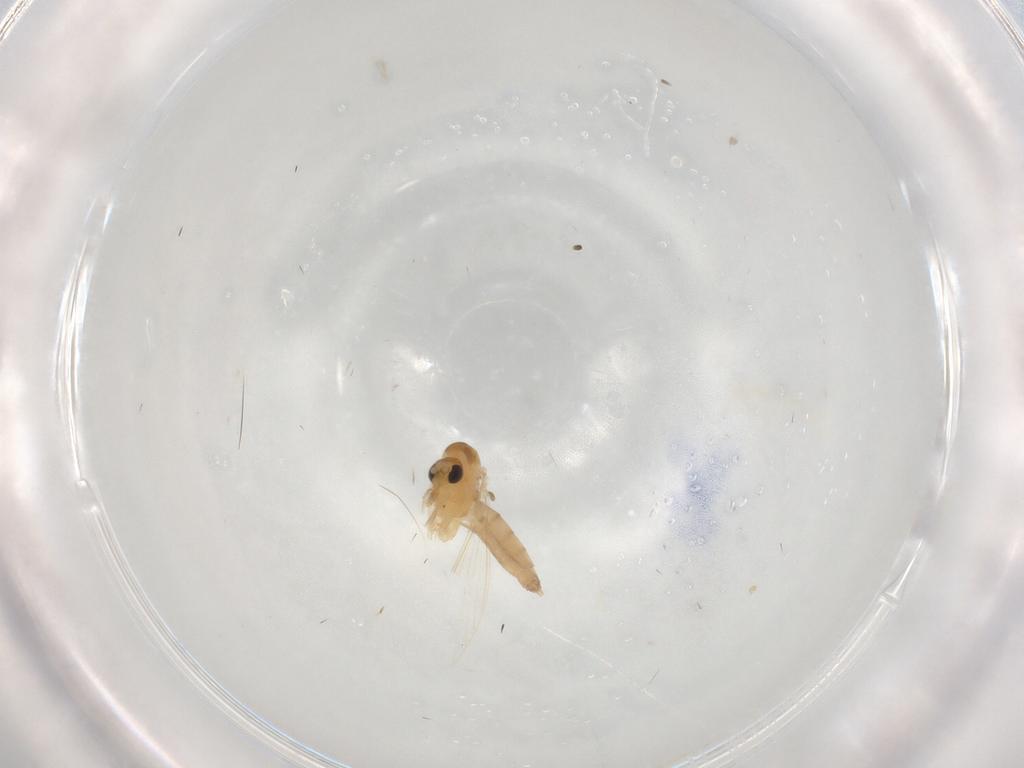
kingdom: Animalia
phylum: Arthropoda
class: Insecta
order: Diptera
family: Psychodidae
